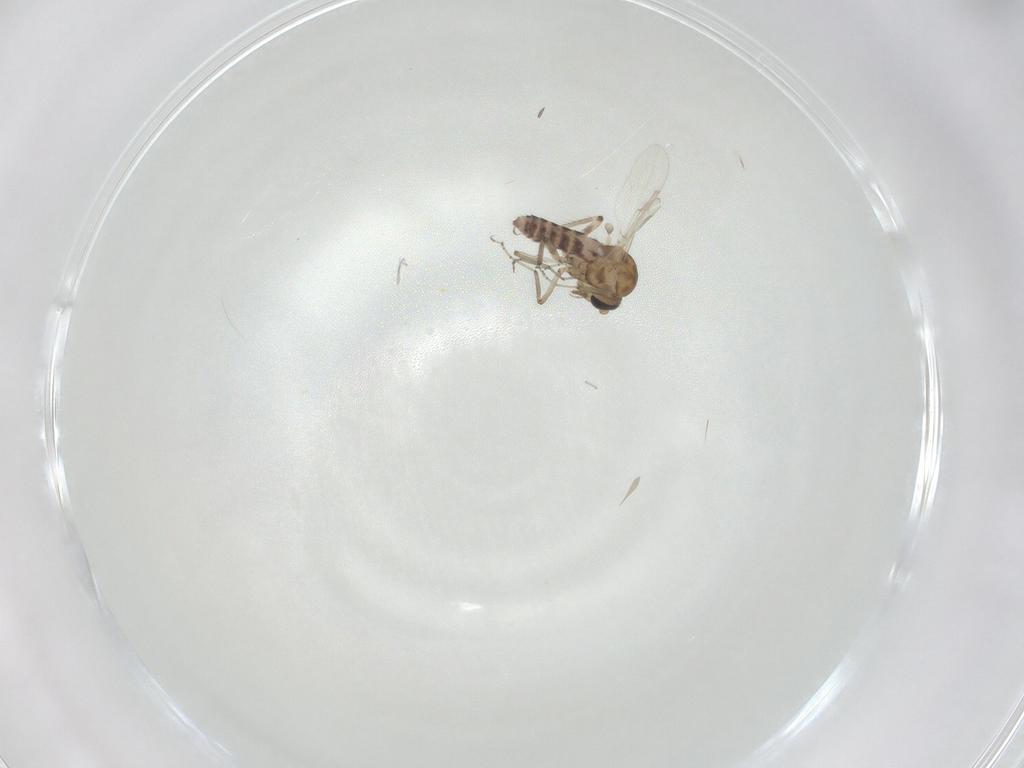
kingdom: Animalia
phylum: Arthropoda
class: Insecta
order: Diptera
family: Ceratopogonidae
